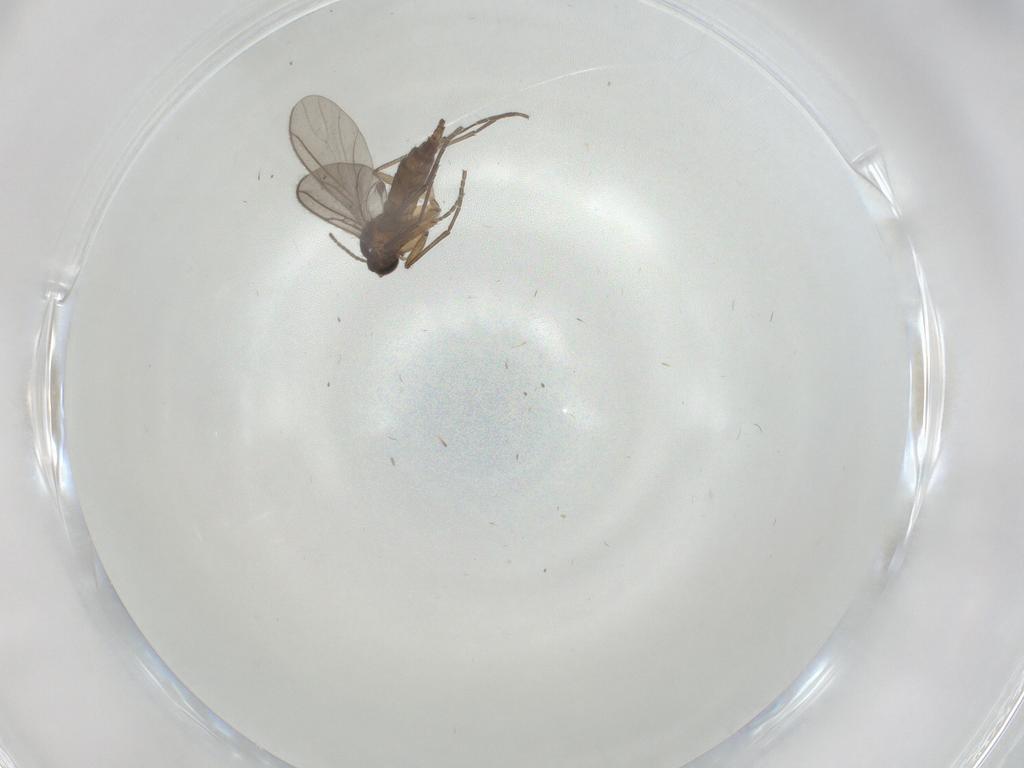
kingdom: Animalia
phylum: Arthropoda
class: Insecta
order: Diptera
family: Sciaridae
